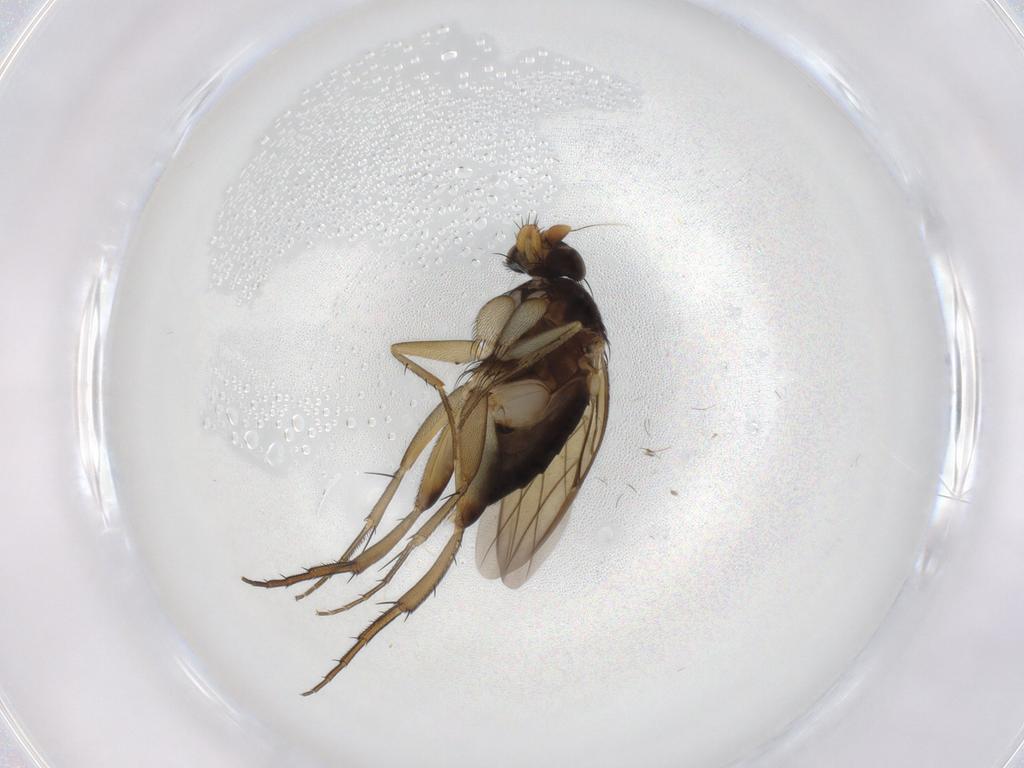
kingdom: Animalia
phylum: Arthropoda
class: Insecta
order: Diptera
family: Phoridae
